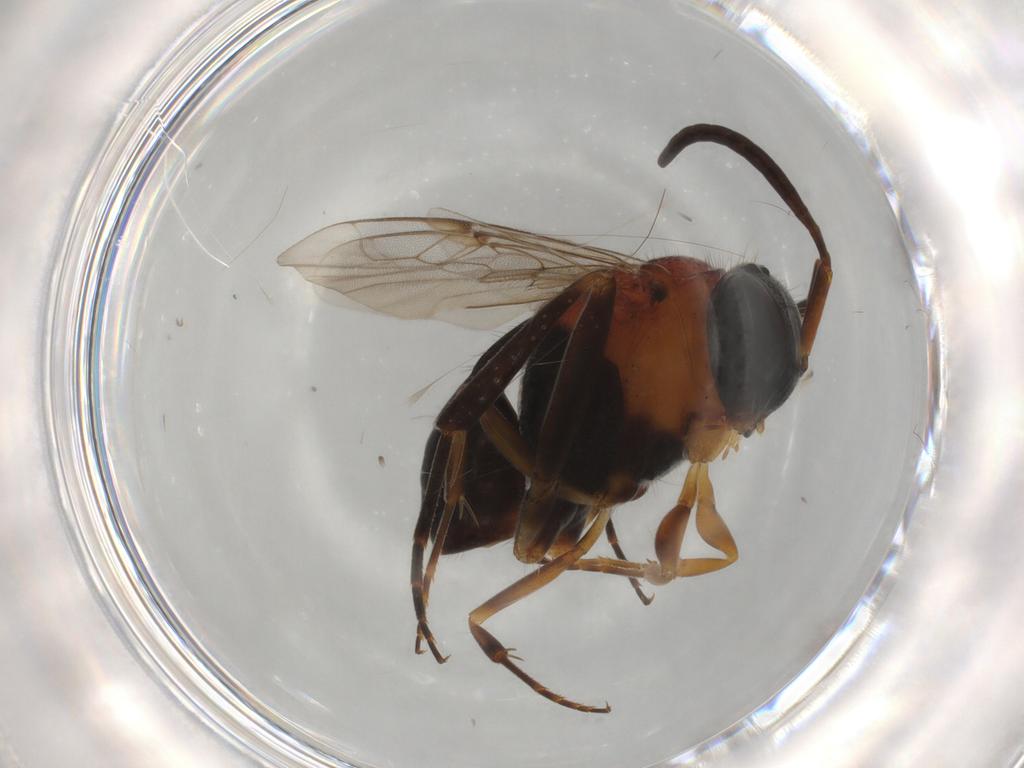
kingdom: Animalia
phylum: Arthropoda
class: Insecta
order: Hymenoptera
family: Evaniidae
